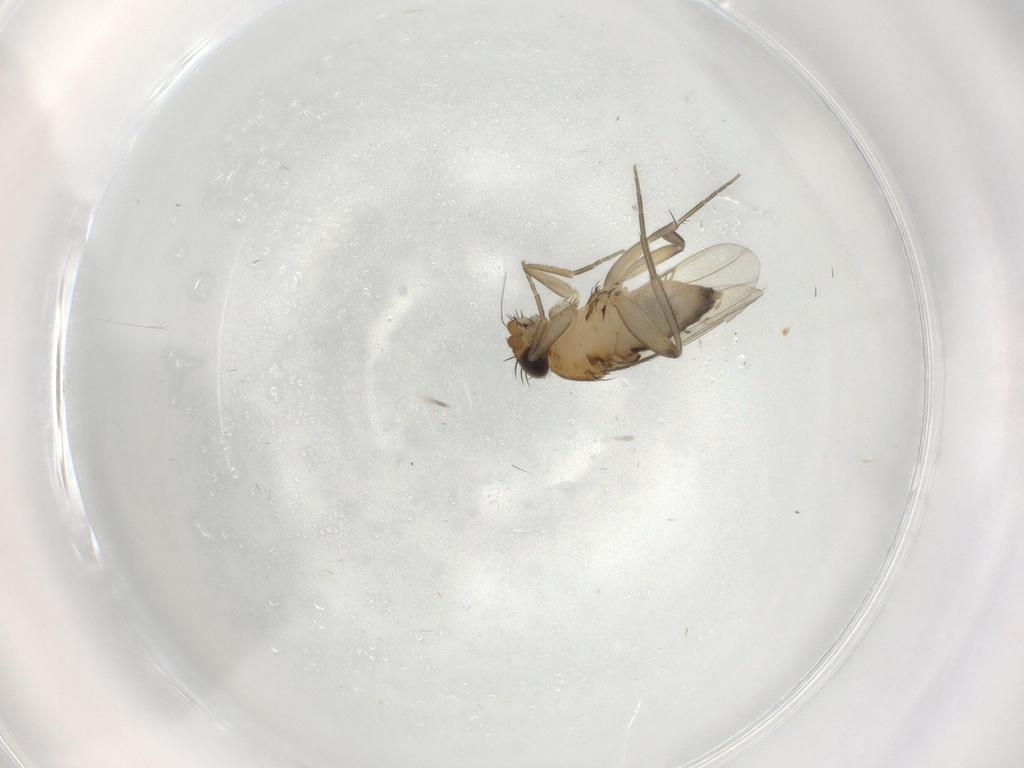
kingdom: Animalia
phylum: Arthropoda
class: Insecta
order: Diptera
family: Phoridae
